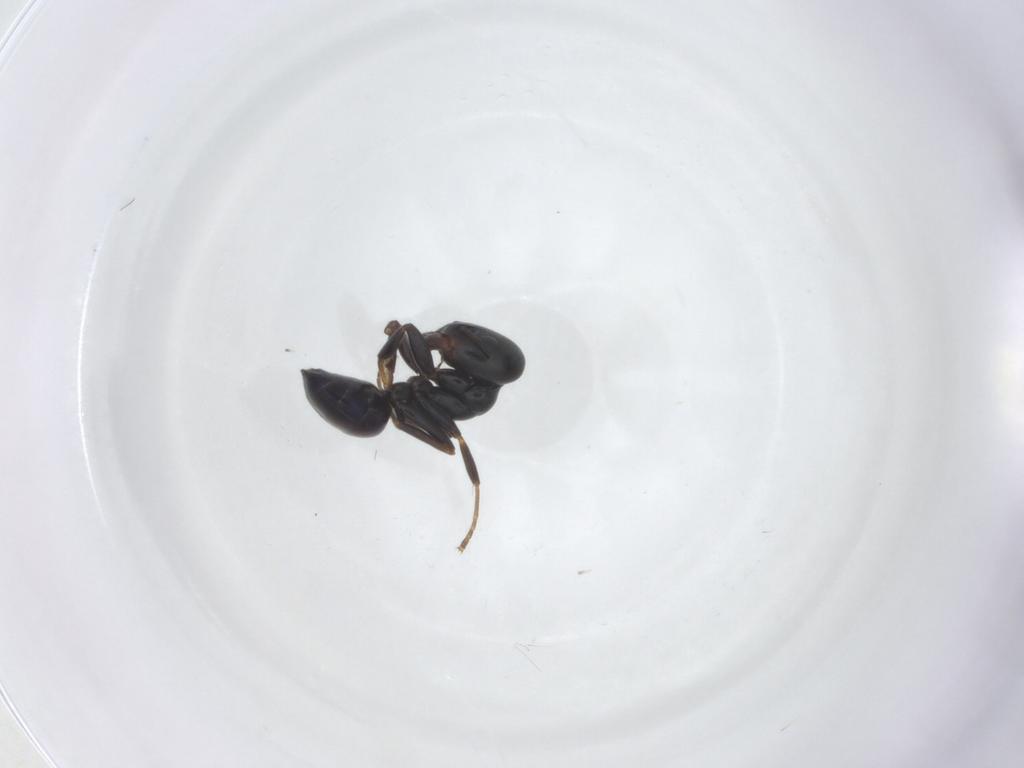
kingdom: Animalia
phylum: Arthropoda
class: Insecta
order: Hymenoptera
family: Formicidae
